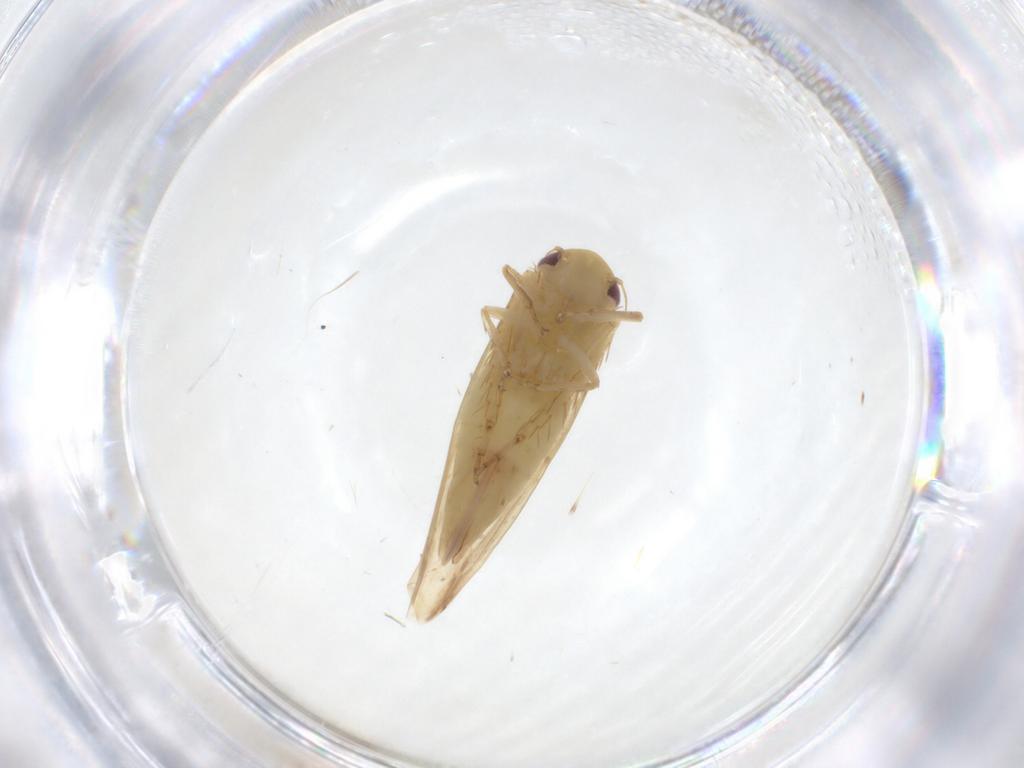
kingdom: Animalia
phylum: Arthropoda
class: Insecta
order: Hemiptera
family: Cicadellidae
